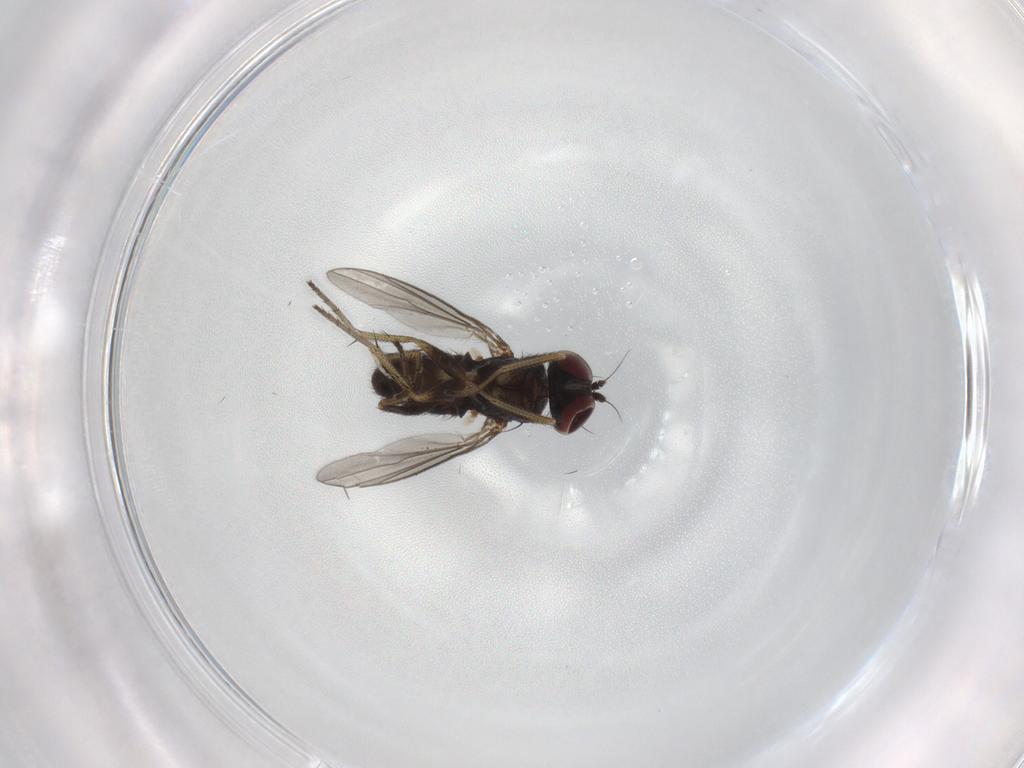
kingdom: Animalia
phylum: Arthropoda
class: Insecta
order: Diptera
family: Dolichopodidae
